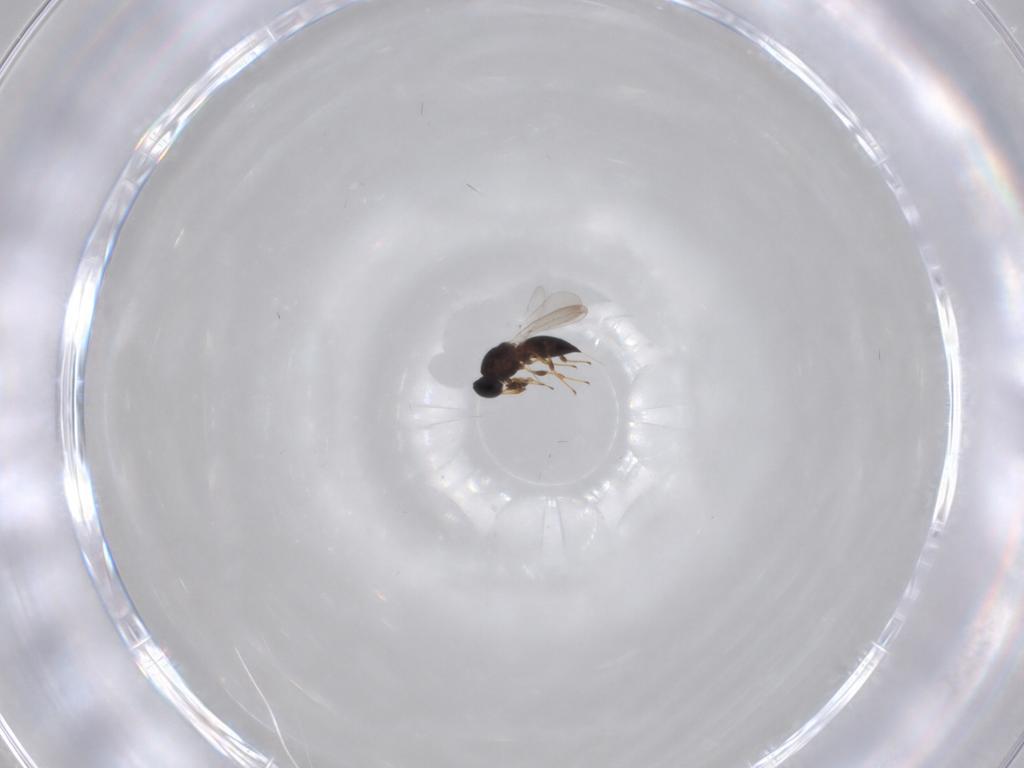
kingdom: Animalia
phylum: Arthropoda
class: Insecta
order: Hymenoptera
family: Platygastridae
